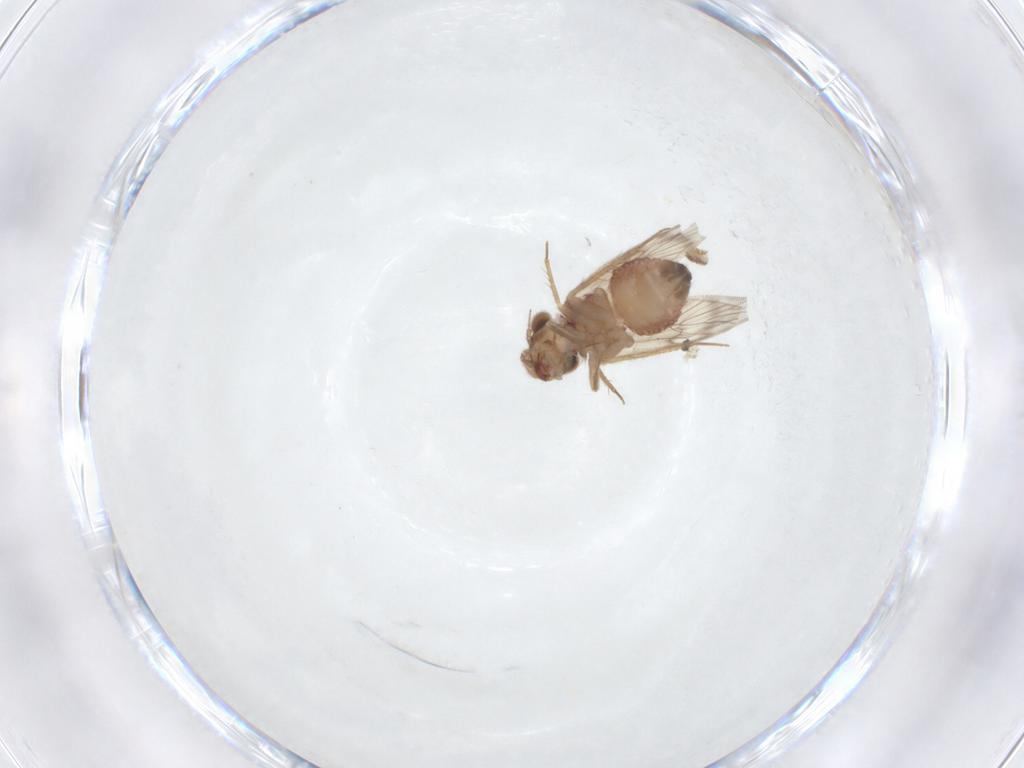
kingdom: Animalia
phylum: Arthropoda
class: Insecta
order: Psocodea
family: Lepidopsocidae
